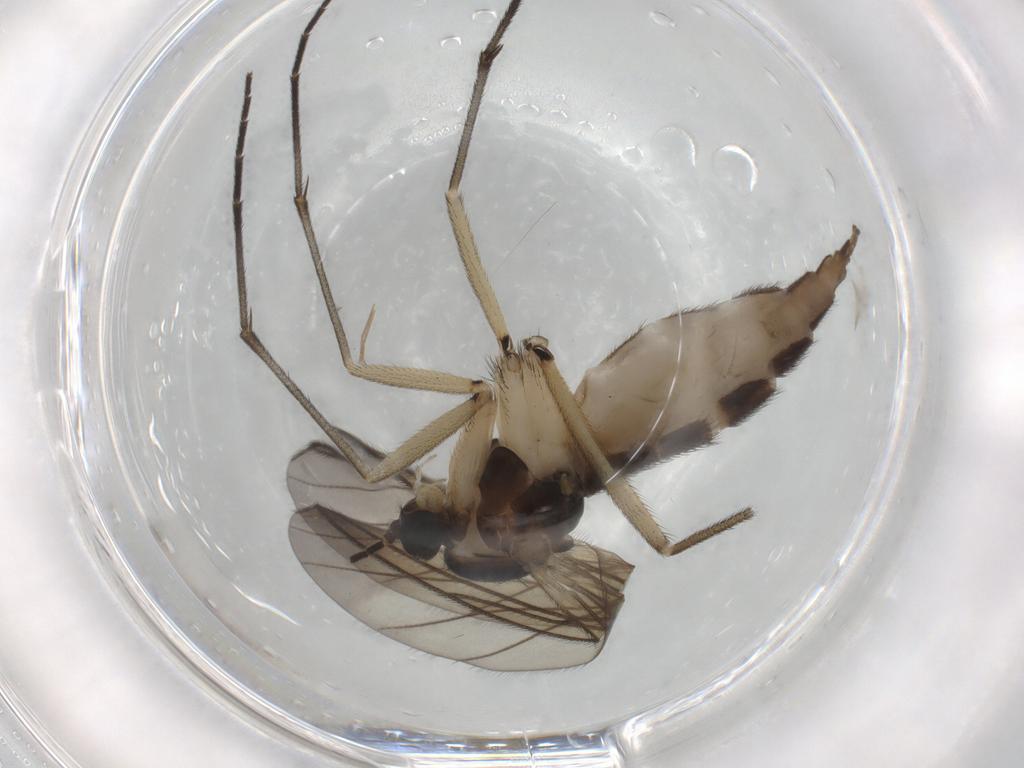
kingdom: Animalia
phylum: Arthropoda
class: Insecta
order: Diptera
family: Sciaridae
